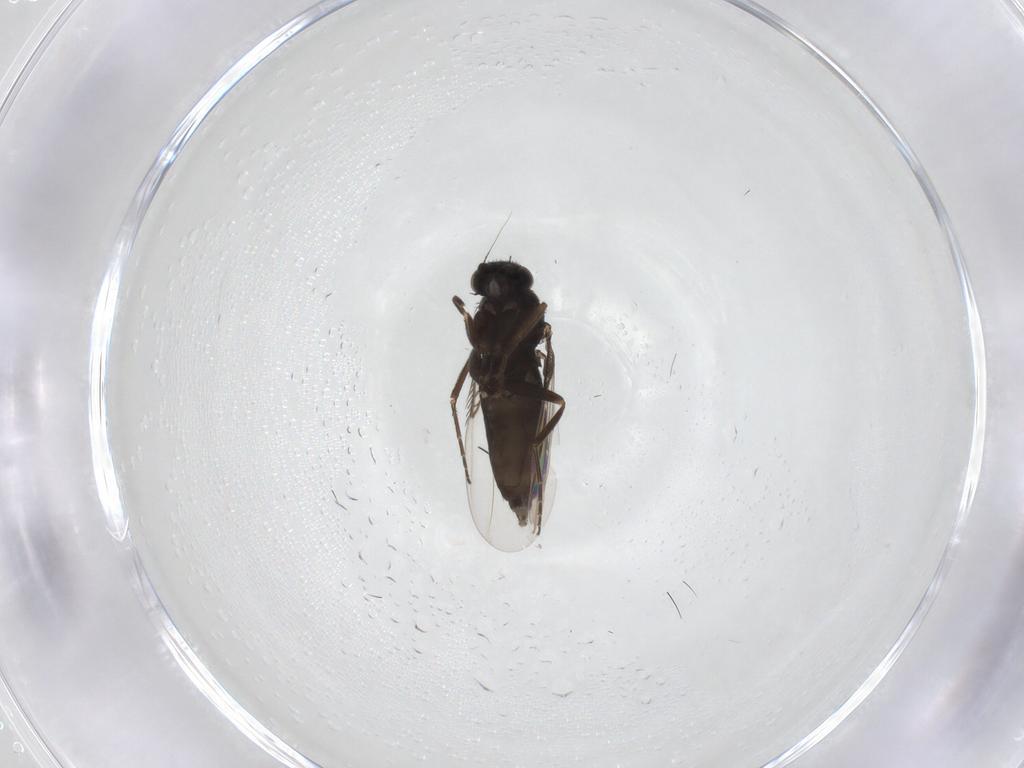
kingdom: Animalia
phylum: Arthropoda
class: Insecta
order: Diptera
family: Phoridae
